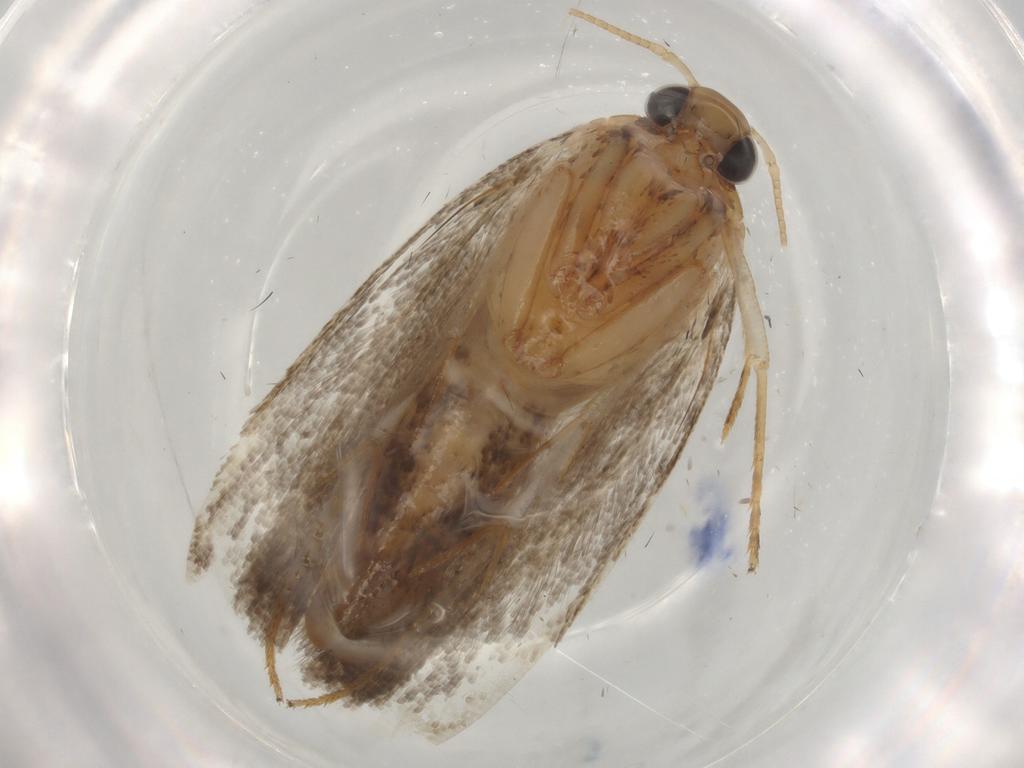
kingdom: Animalia
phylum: Arthropoda
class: Insecta
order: Lepidoptera
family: Gracillariidae
